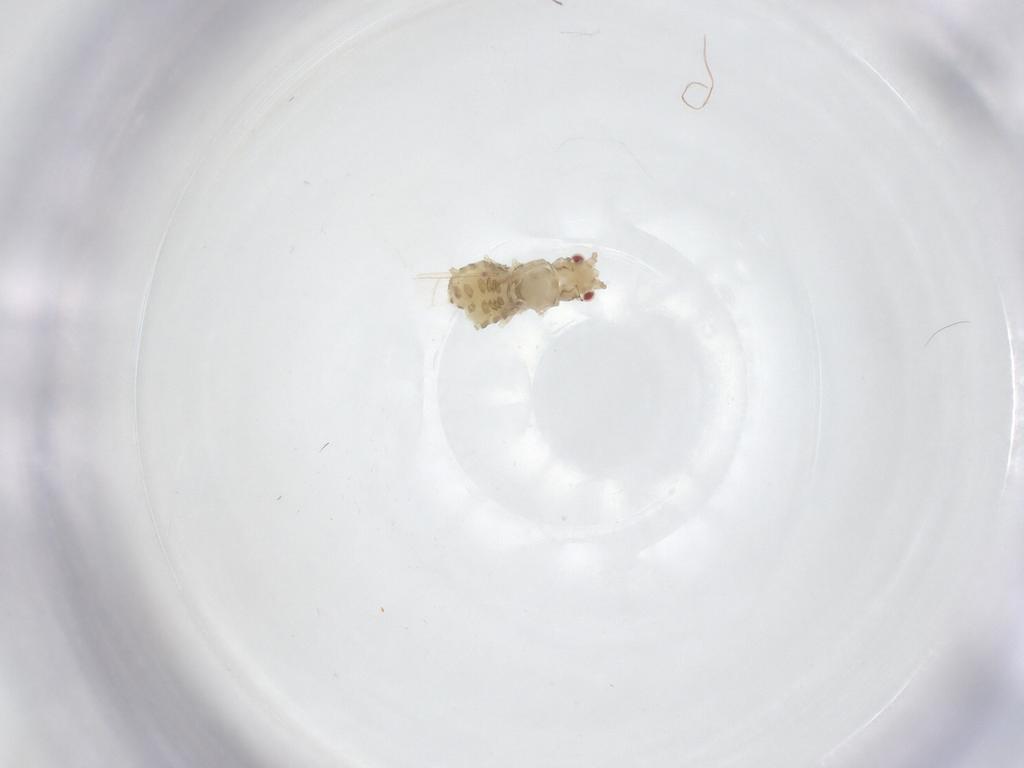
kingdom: Animalia
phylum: Arthropoda
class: Insecta
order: Hemiptera
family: Aphididae
